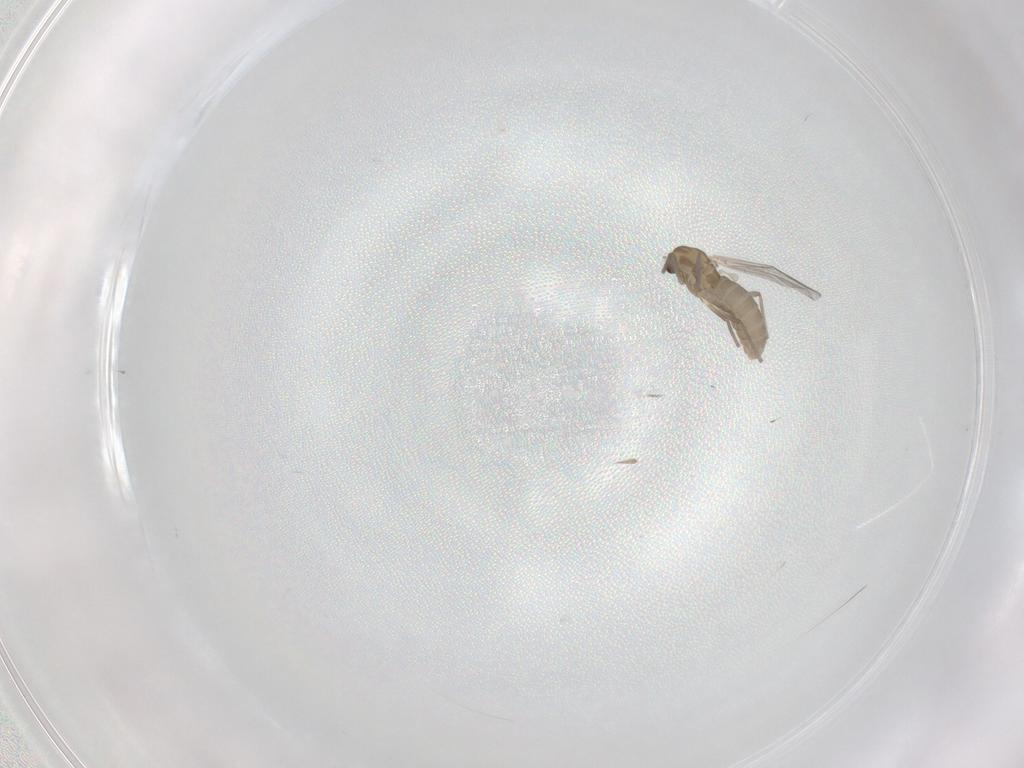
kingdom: Animalia
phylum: Arthropoda
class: Insecta
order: Diptera
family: Chironomidae
